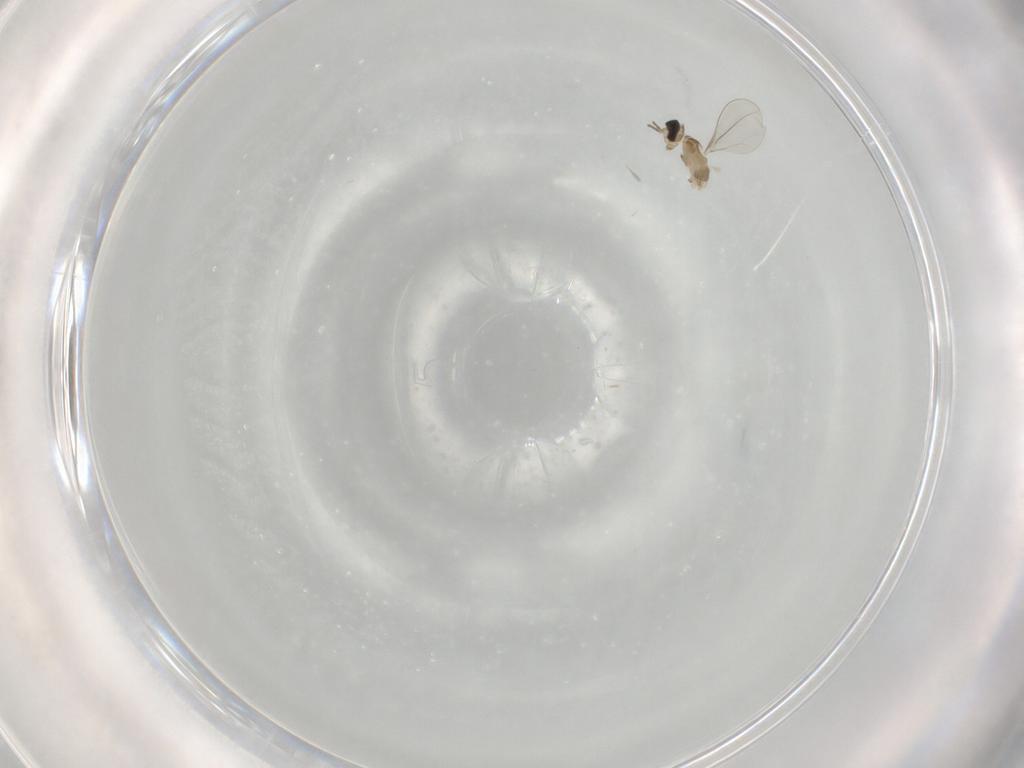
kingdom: Animalia
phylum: Arthropoda
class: Insecta
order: Diptera
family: Cecidomyiidae
